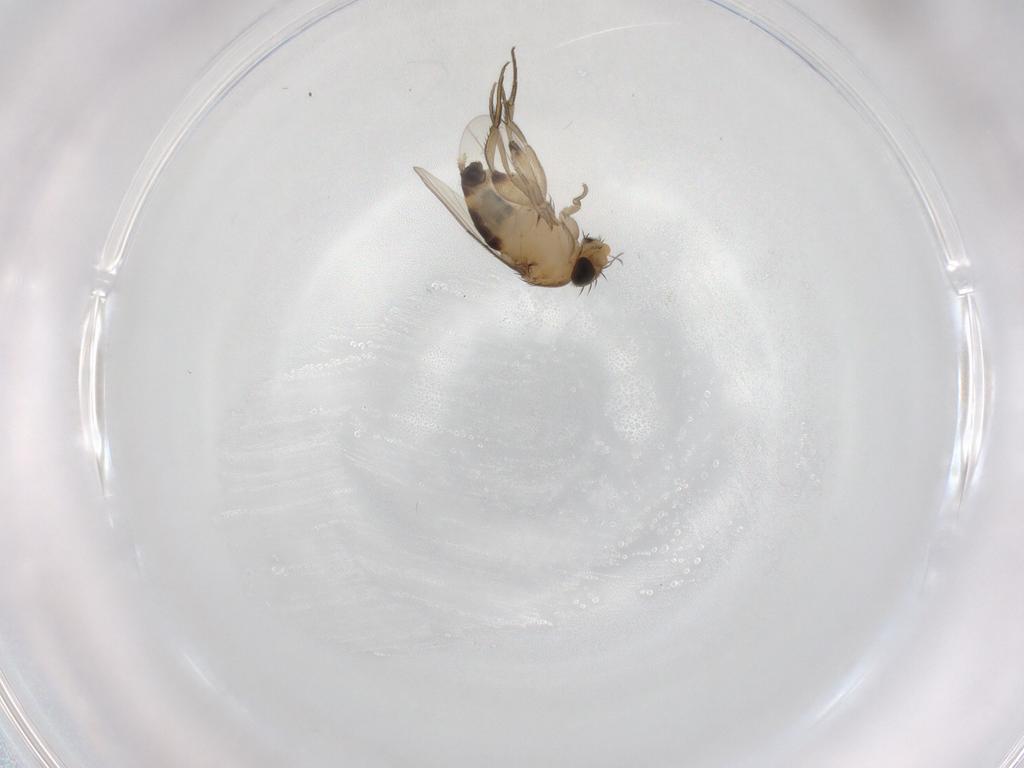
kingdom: Animalia
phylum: Arthropoda
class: Insecta
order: Diptera
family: Phoridae
